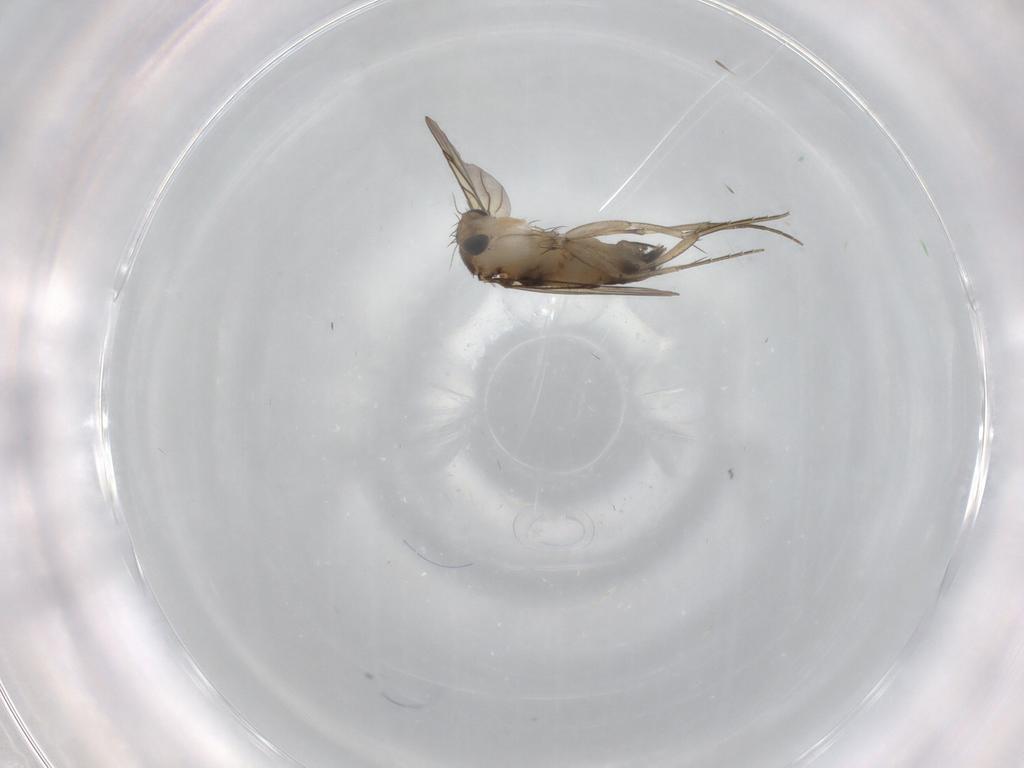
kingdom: Animalia
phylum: Arthropoda
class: Insecta
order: Diptera
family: Phoridae
